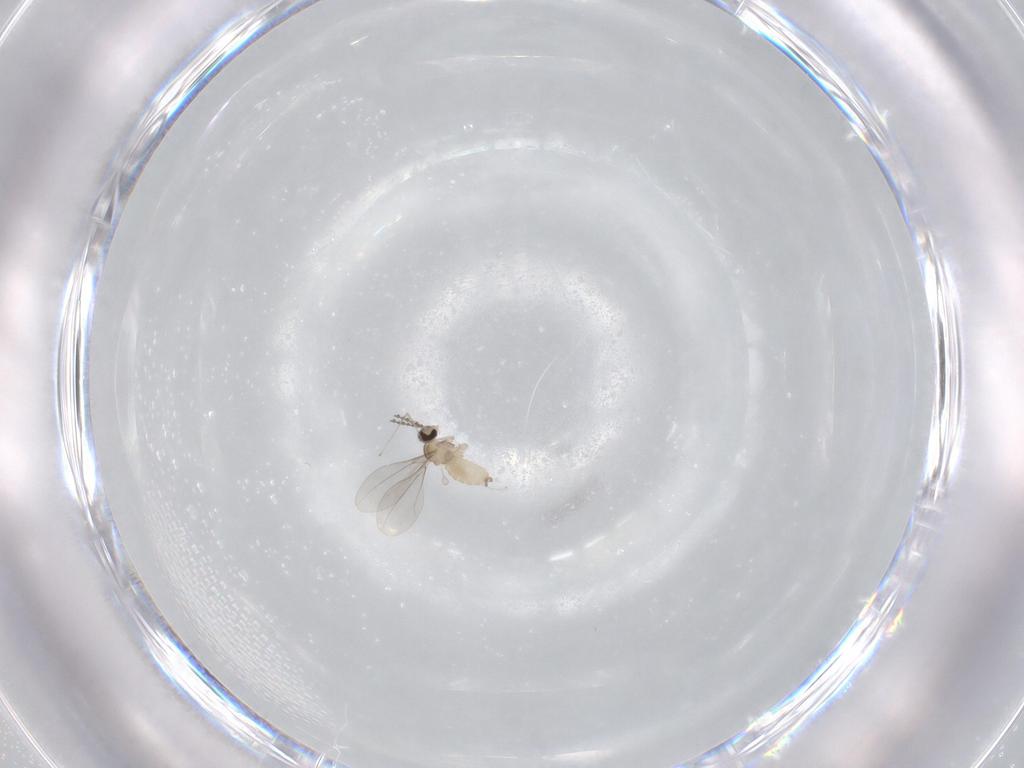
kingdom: Animalia
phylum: Arthropoda
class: Insecta
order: Diptera
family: Cecidomyiidae
